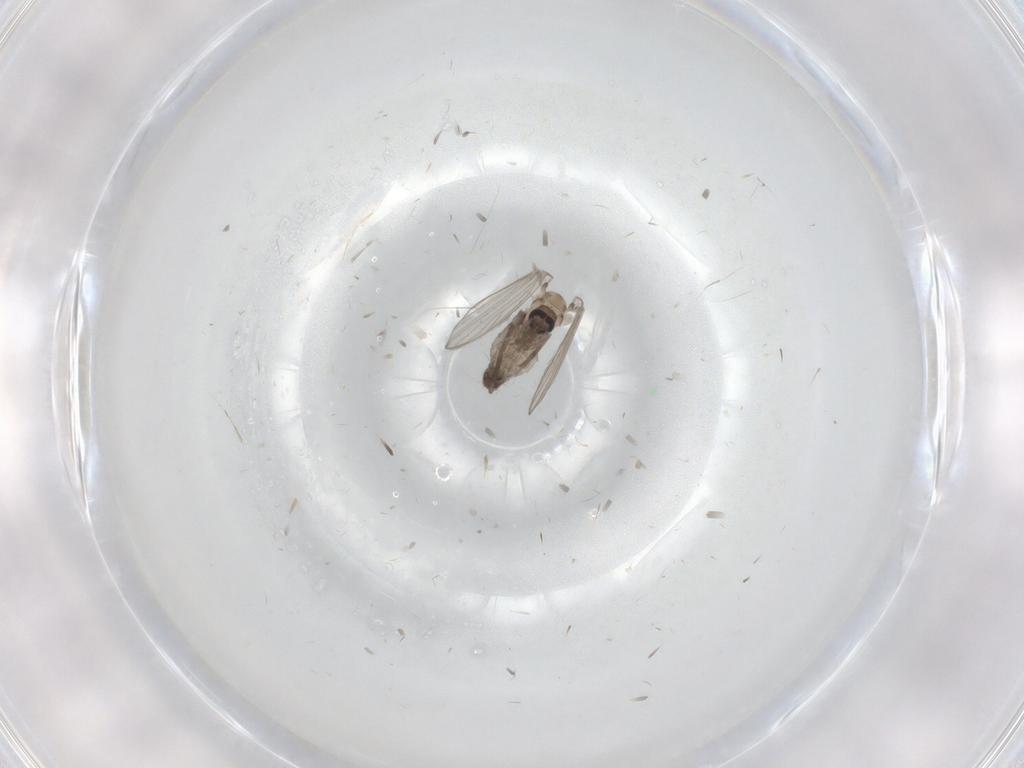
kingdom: Animalia
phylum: Arthropoda
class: Insecta
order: Diptera
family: Psychodidae
